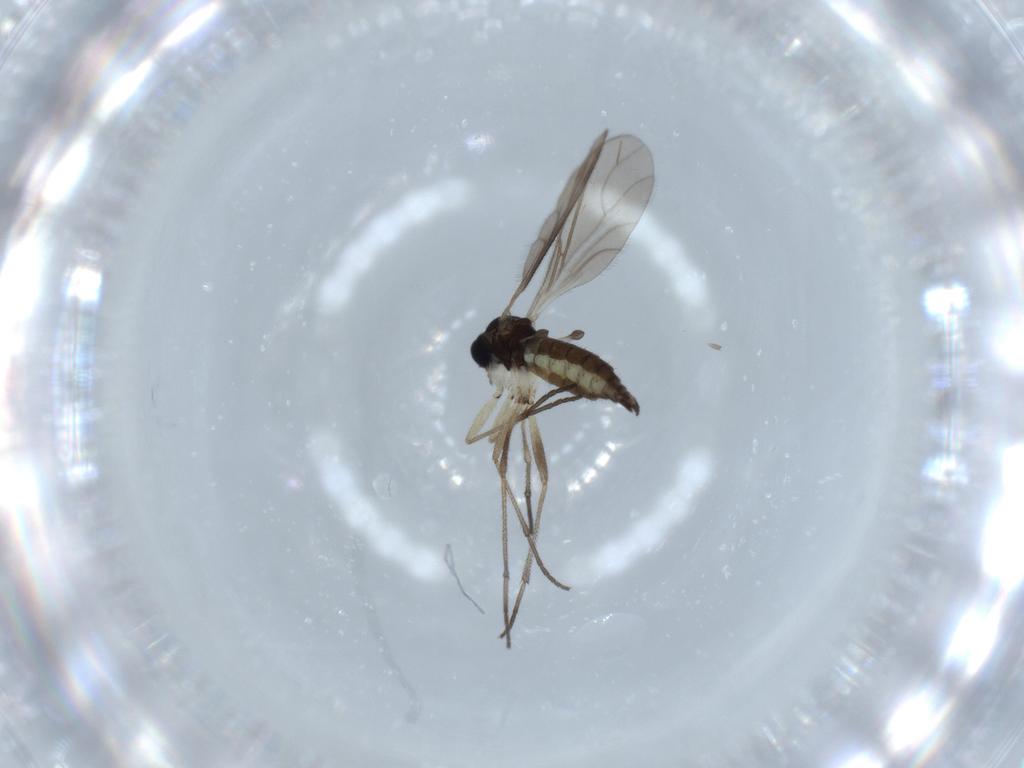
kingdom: Animalia
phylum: Arthropoda
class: Insecta
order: Diptera
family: Sciaridae
